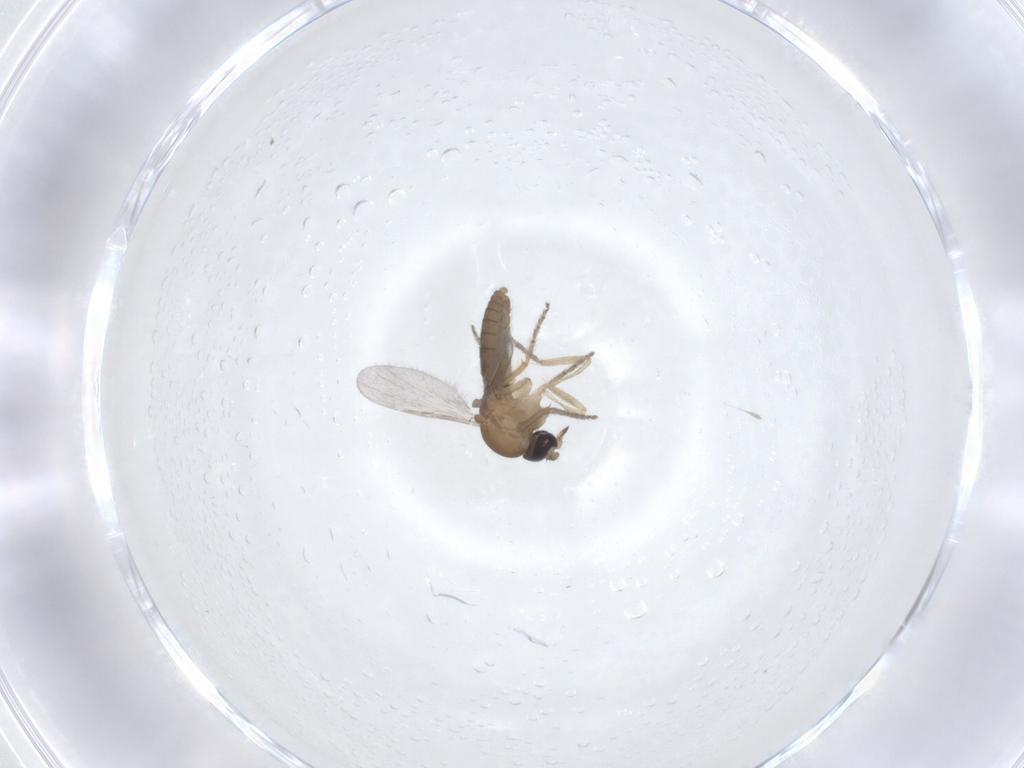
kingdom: Animalia
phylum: Arthropoda
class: Insecta
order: Diptera
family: Ceratopogonidae
